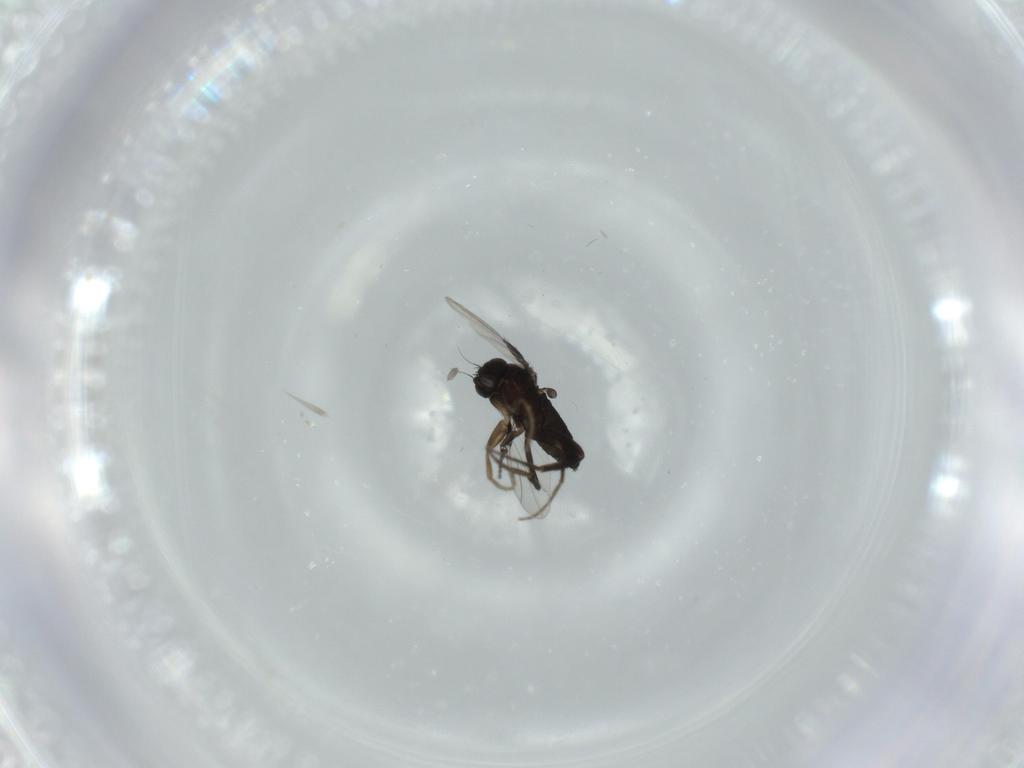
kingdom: Animalia
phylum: Arthropoda
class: Insecta
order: Diptera
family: Phoridae
